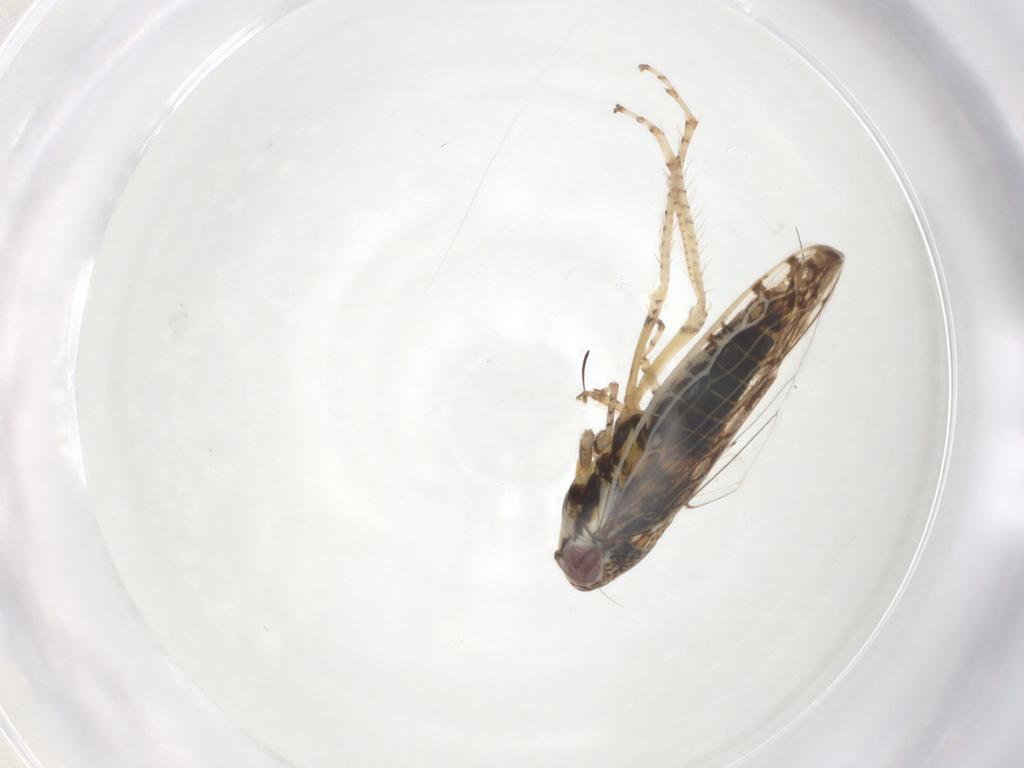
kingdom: Animalia
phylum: Arthropoda
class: Insecta
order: Hemiptera
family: Cicadellidae
